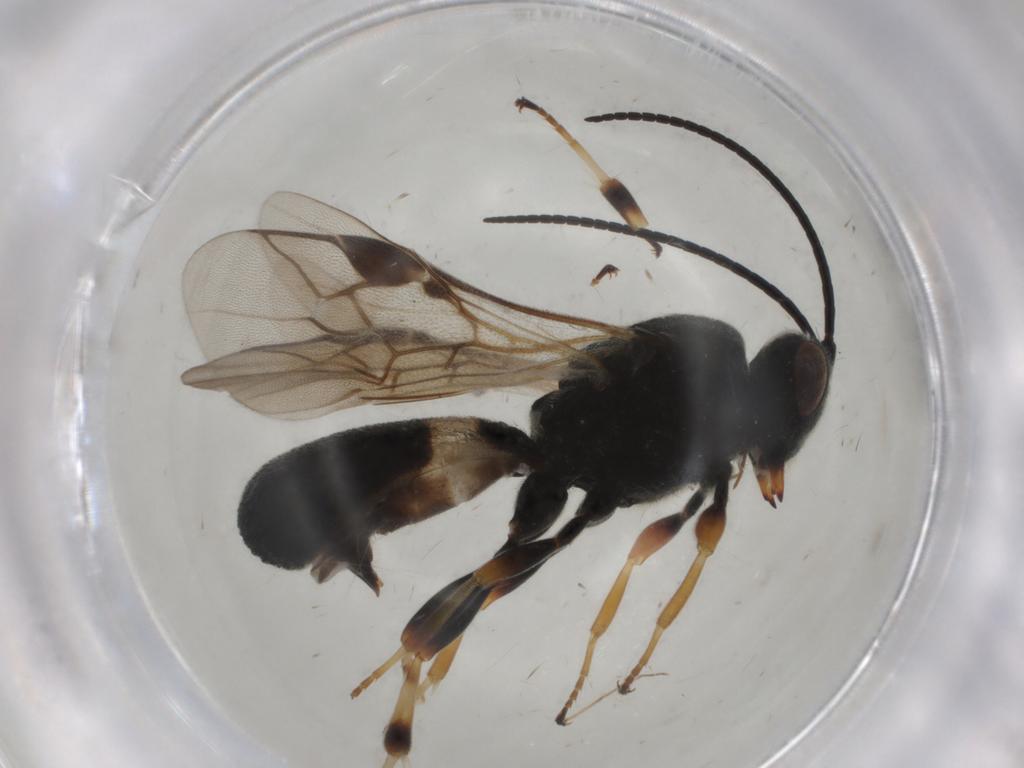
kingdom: Animalia
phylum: Arthropoda
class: Insecta
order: Hymenoptera
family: Braconidae
